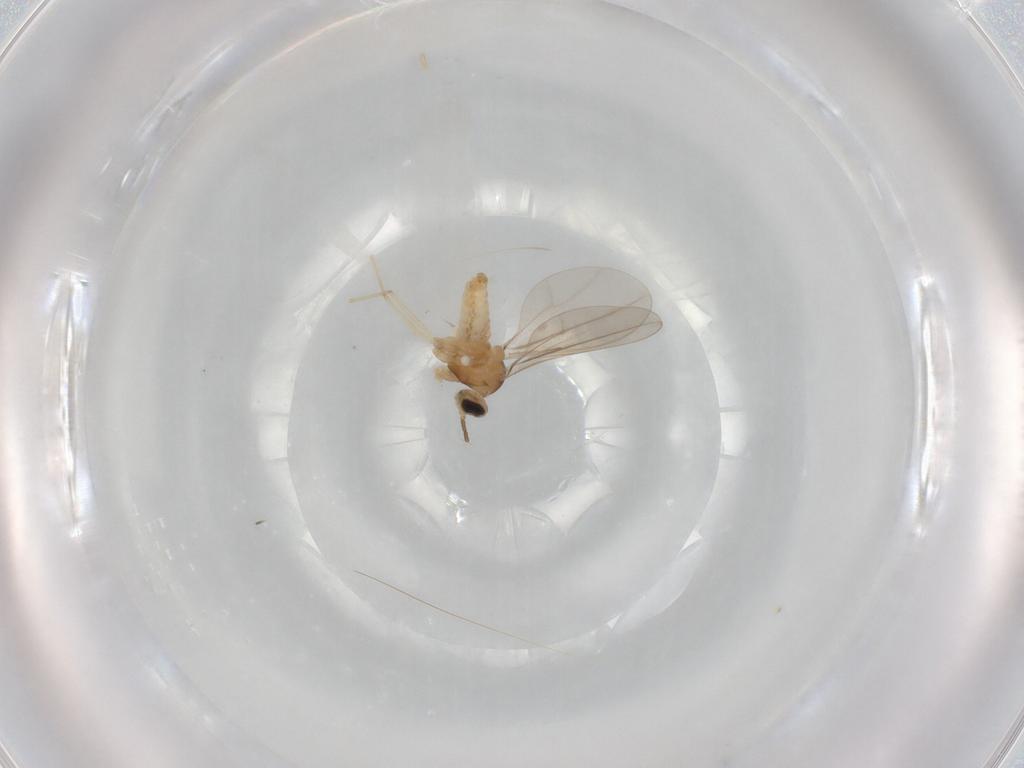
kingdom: Animalia
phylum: Arthropoda
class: Insecta
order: Diptera
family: Cecidomyiidae
